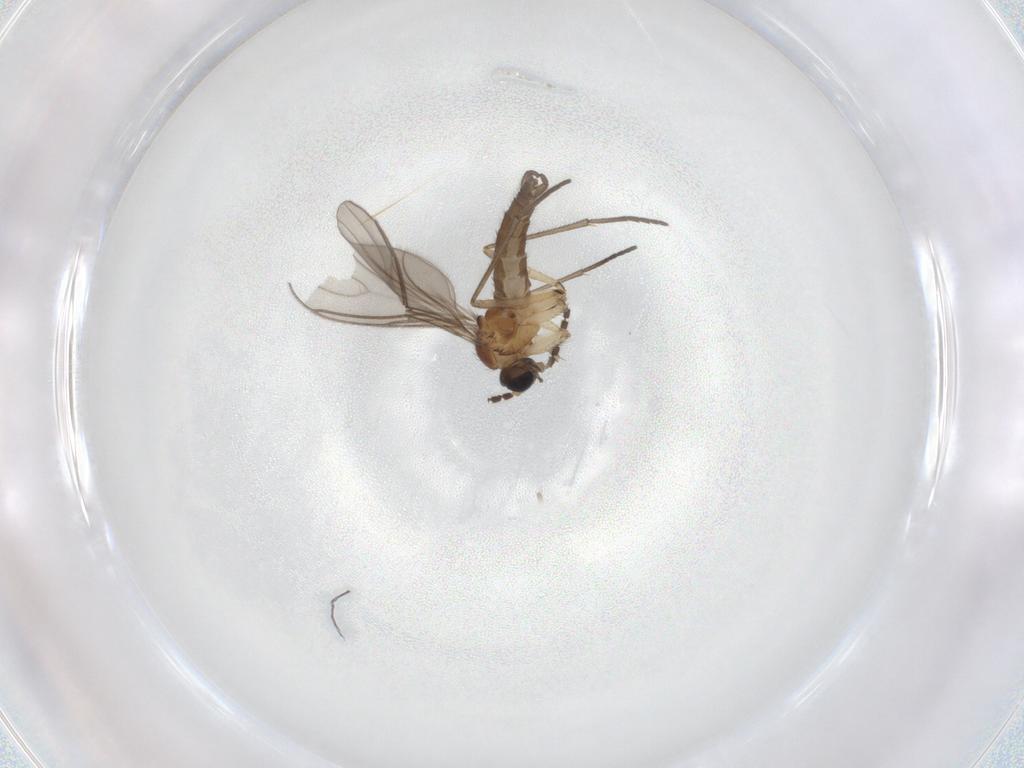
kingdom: Animalia
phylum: Arthropoda
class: Insecta
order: Diptera
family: Sciaridae
